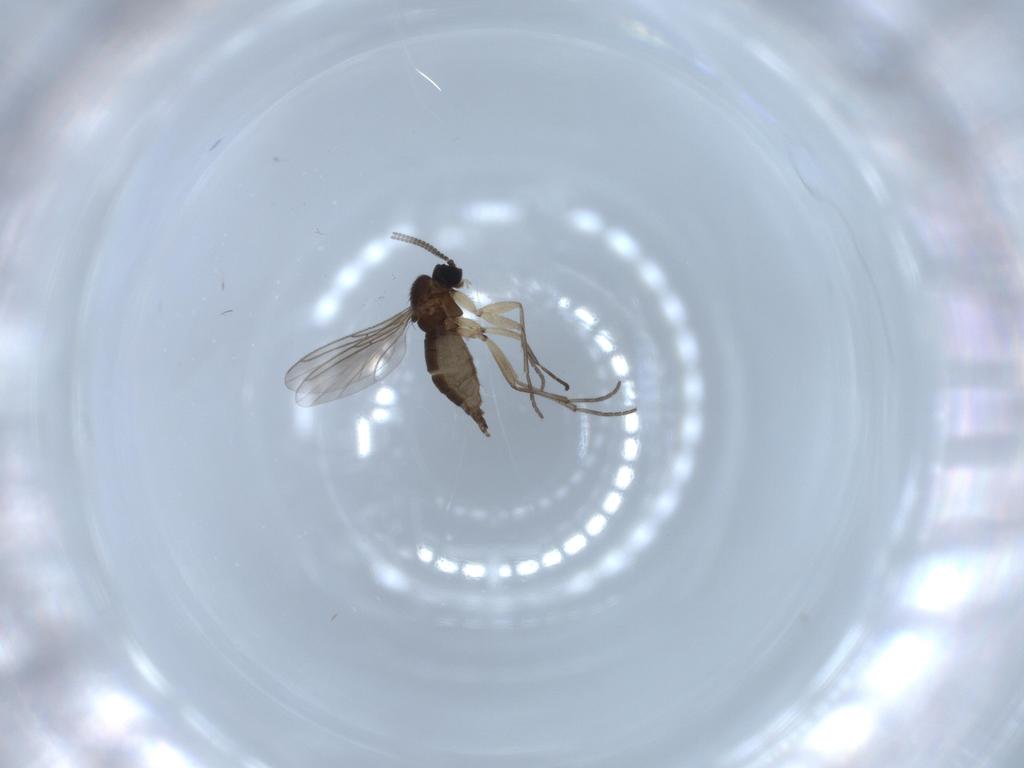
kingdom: Animalia
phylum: Arthropoda
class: Insecta
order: Diptera
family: Sciaridae
